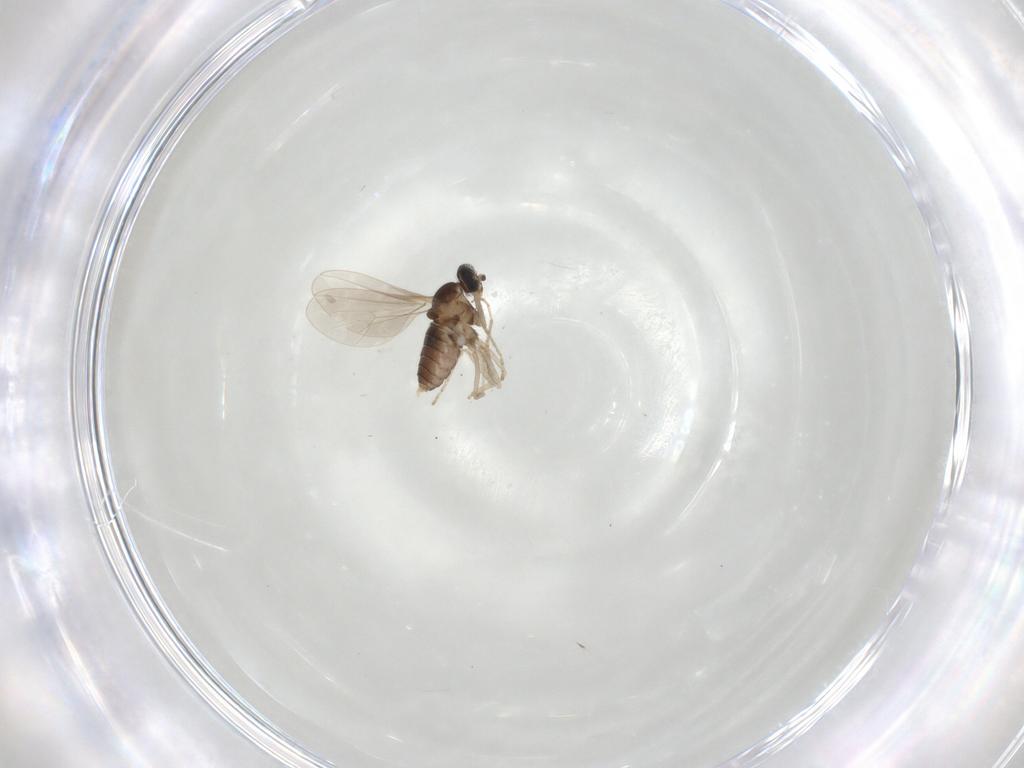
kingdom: Animalia
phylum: Arthropoda
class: Insecta
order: Diptera
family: Cecidomyiidae
